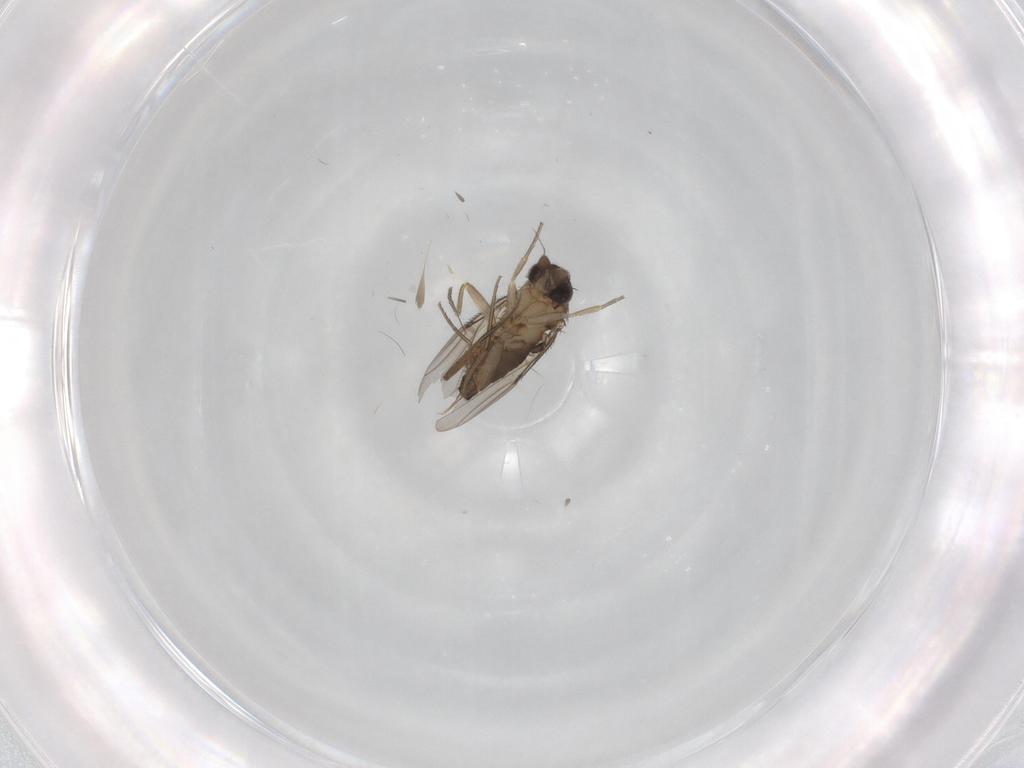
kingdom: Animalia
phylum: Arthropoda
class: Insecta
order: Diptera
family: Phoridae
